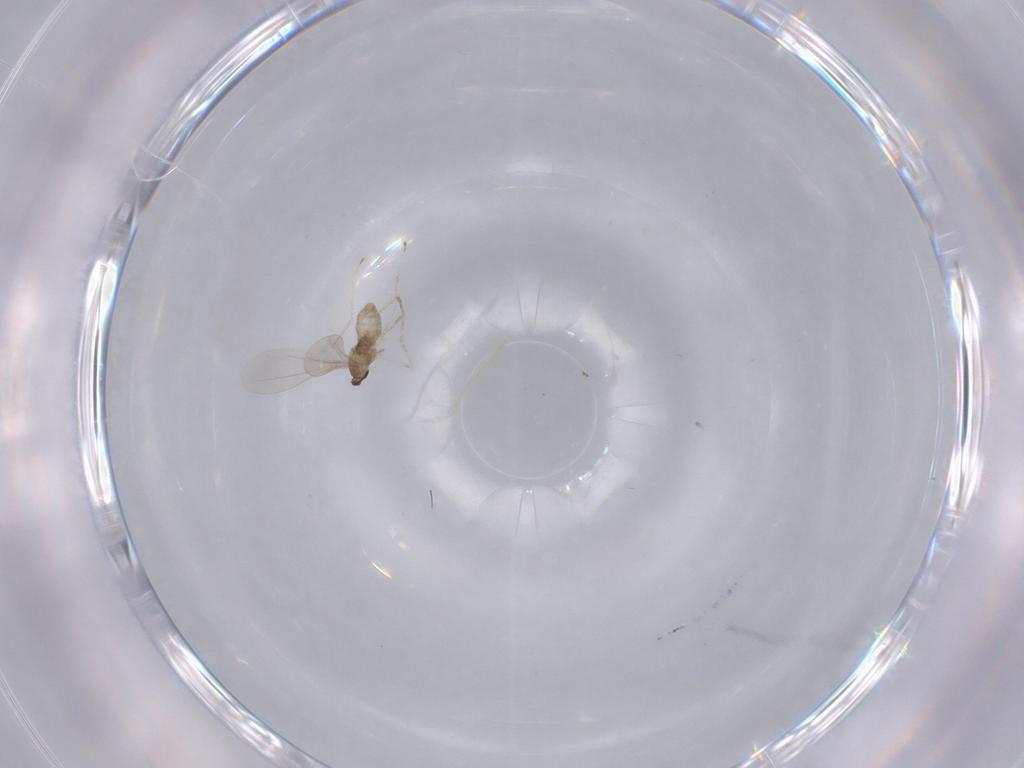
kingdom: Animalia
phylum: Arthropoda
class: Insecta
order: Diptera
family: Cecidomyiidae
